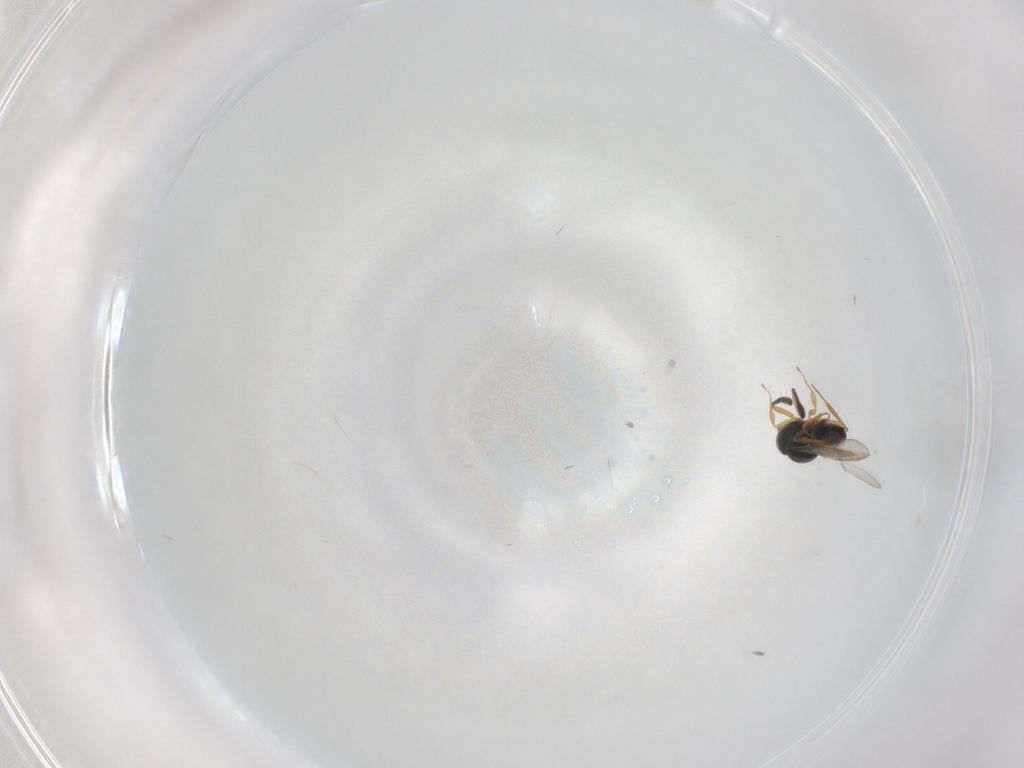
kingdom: Animalia
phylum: Arthropoda
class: Insecta
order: Hymenoptera
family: Scelionidae
